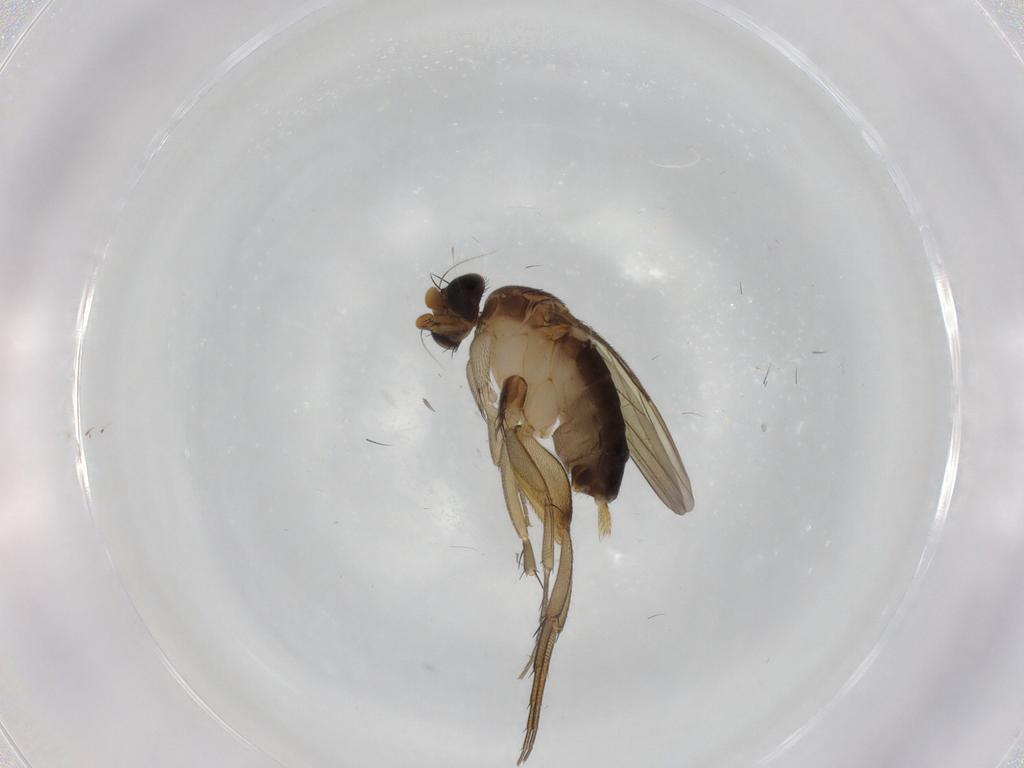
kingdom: Animalia
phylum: Arthropoda
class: Insecta
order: Diptera
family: Phoridae
